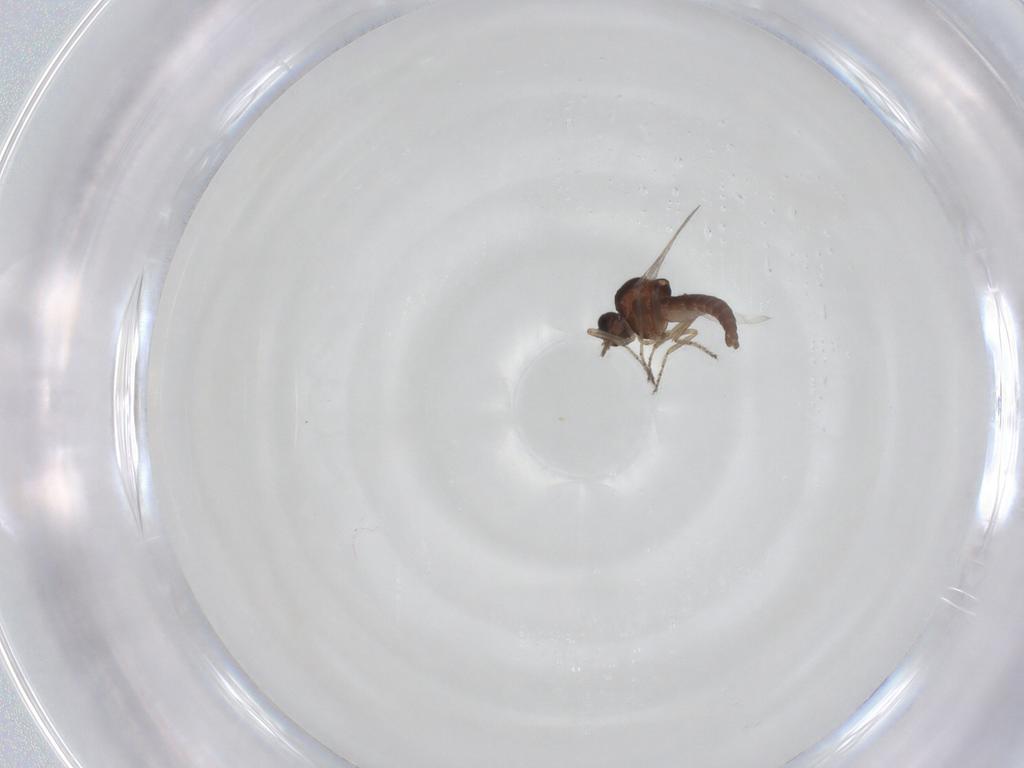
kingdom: Animalia
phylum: Arthropoda
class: Insecta
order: Diptera
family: Ceratopogonidae
